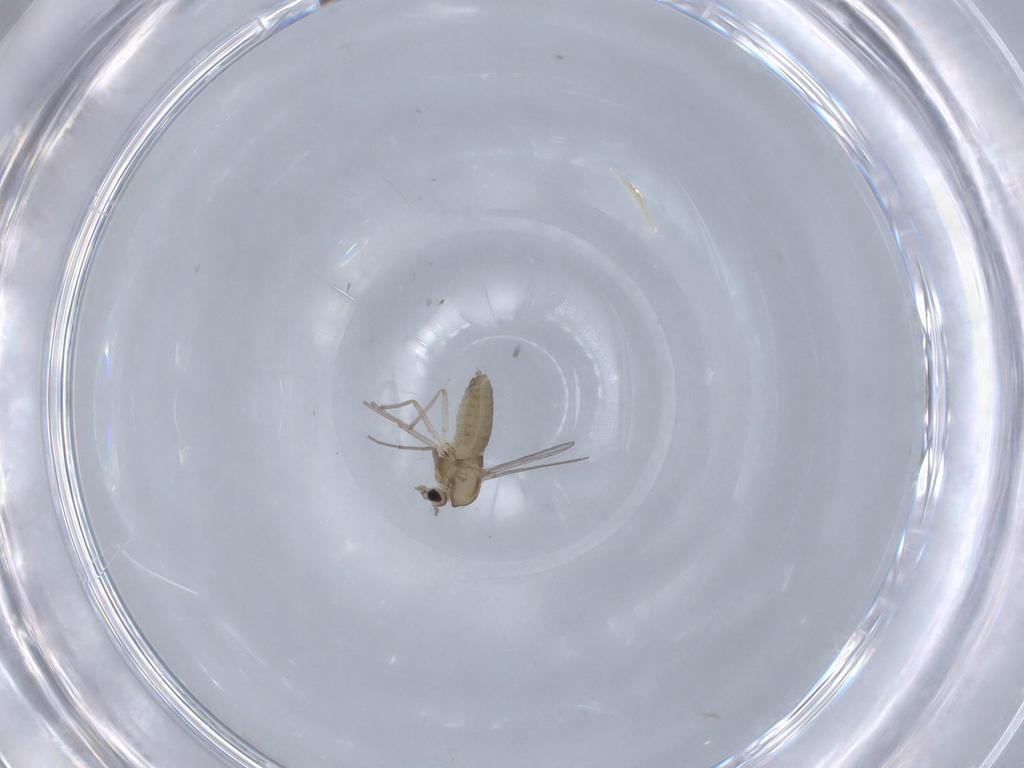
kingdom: Animalia
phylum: Arthropoda
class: Insecta
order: Diptera
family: Chironomidae
